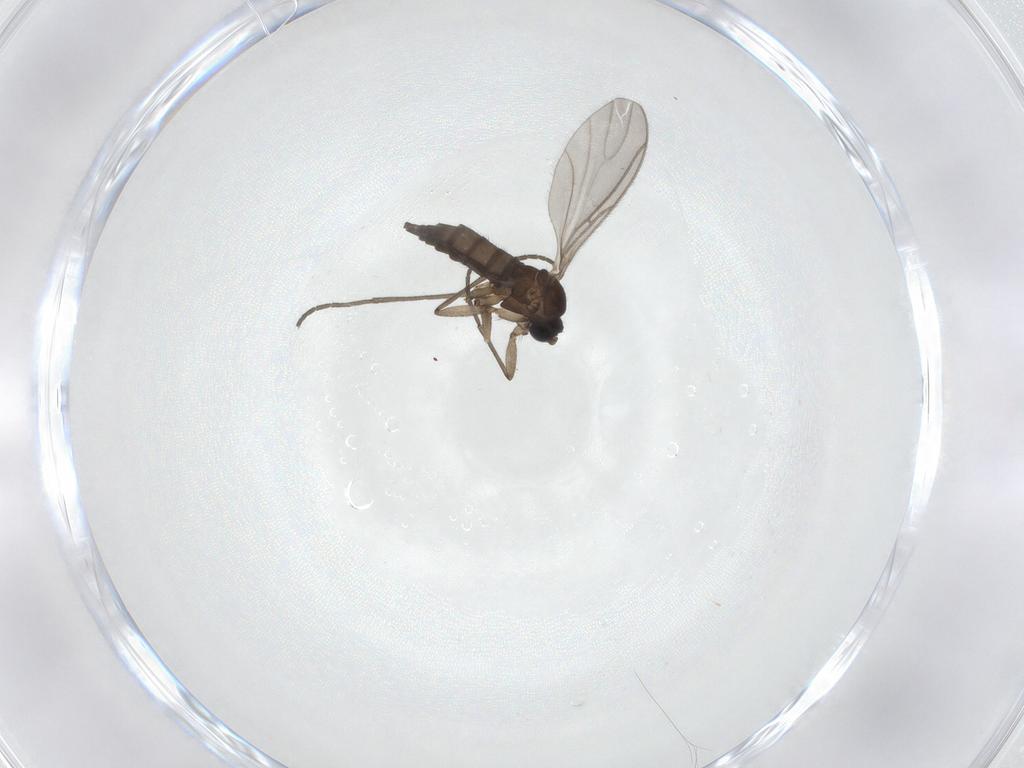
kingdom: Animalia
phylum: Arthropoda
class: Insecta
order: Diptera
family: Sciaridae
